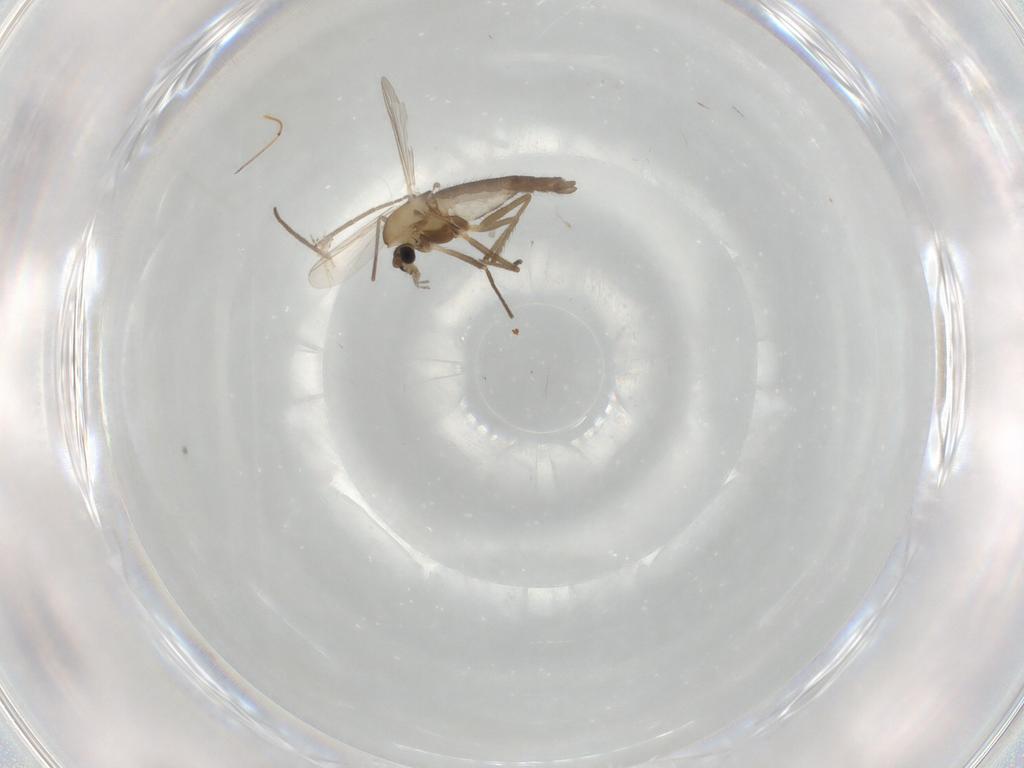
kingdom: Animalia
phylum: Arthropoda
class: Insecta
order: Diptera
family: Chironomidae
